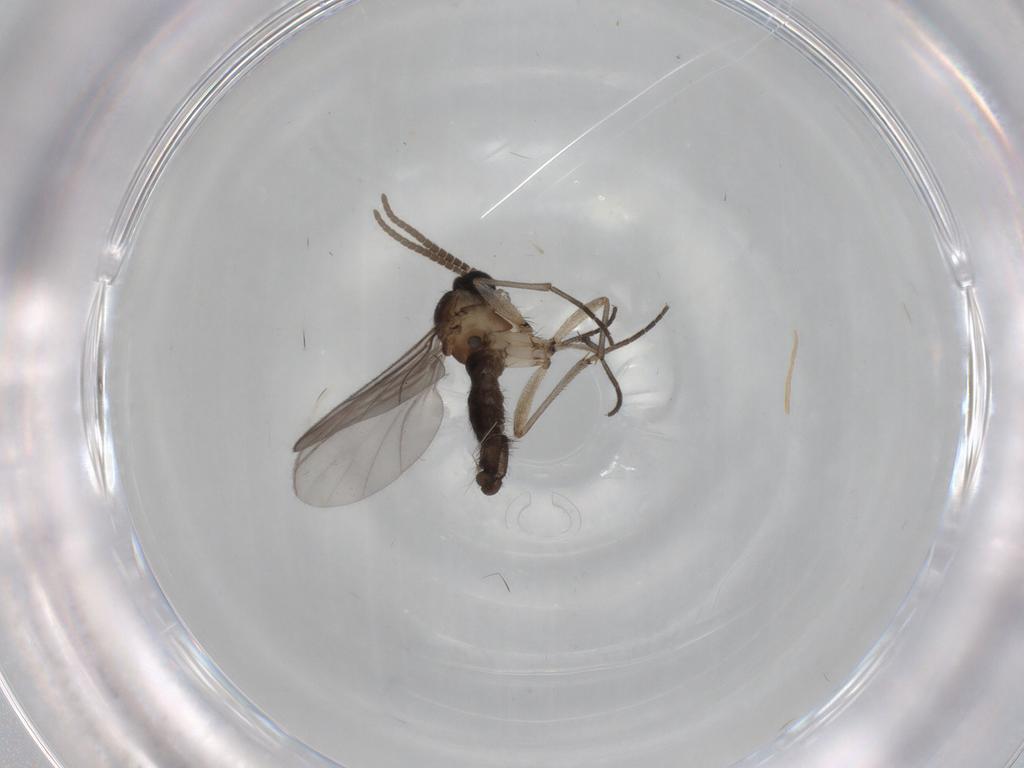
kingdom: Animalia
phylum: Arthropoda
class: Insecta
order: Diptera
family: Sciaridae
